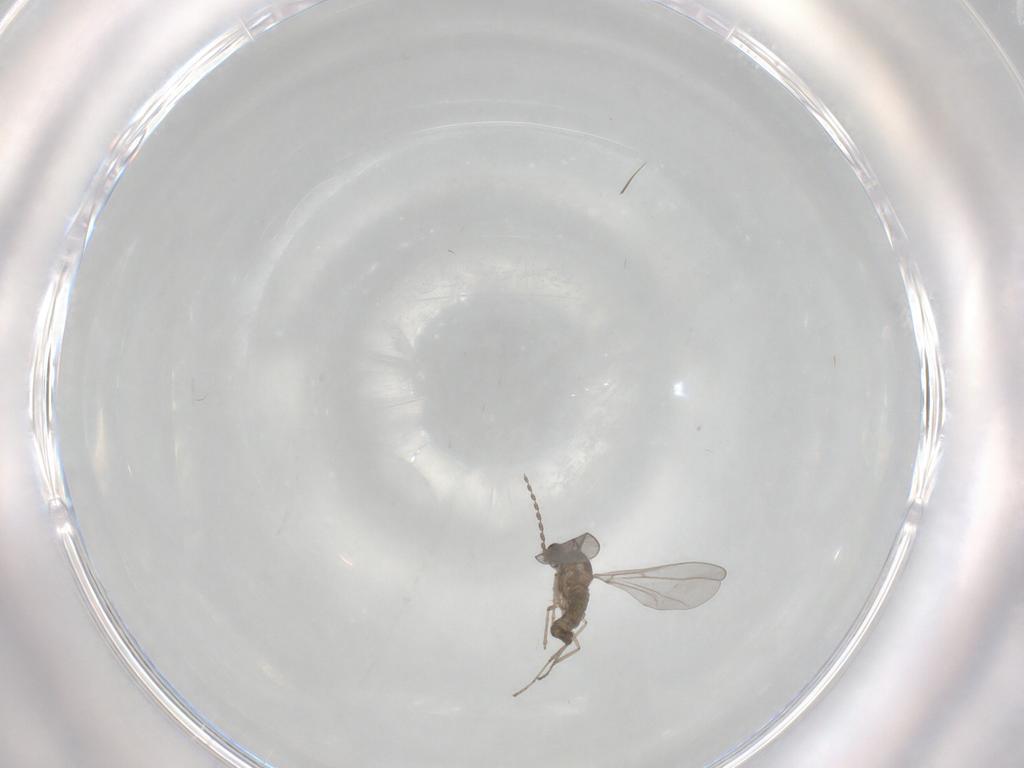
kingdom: Animalia
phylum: Arthropoda
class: Insecta
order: Diptera
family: Cecidomyiidae
